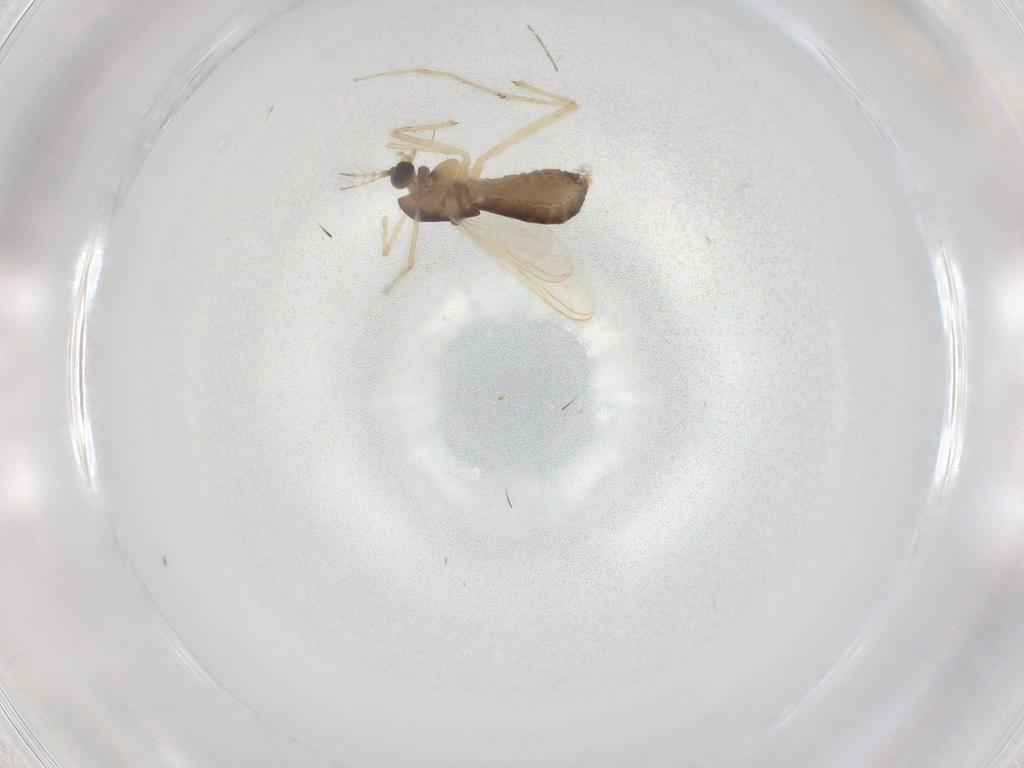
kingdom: Animalia
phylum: Arthropoda
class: Insecta
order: Diptera
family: Chironomidae
